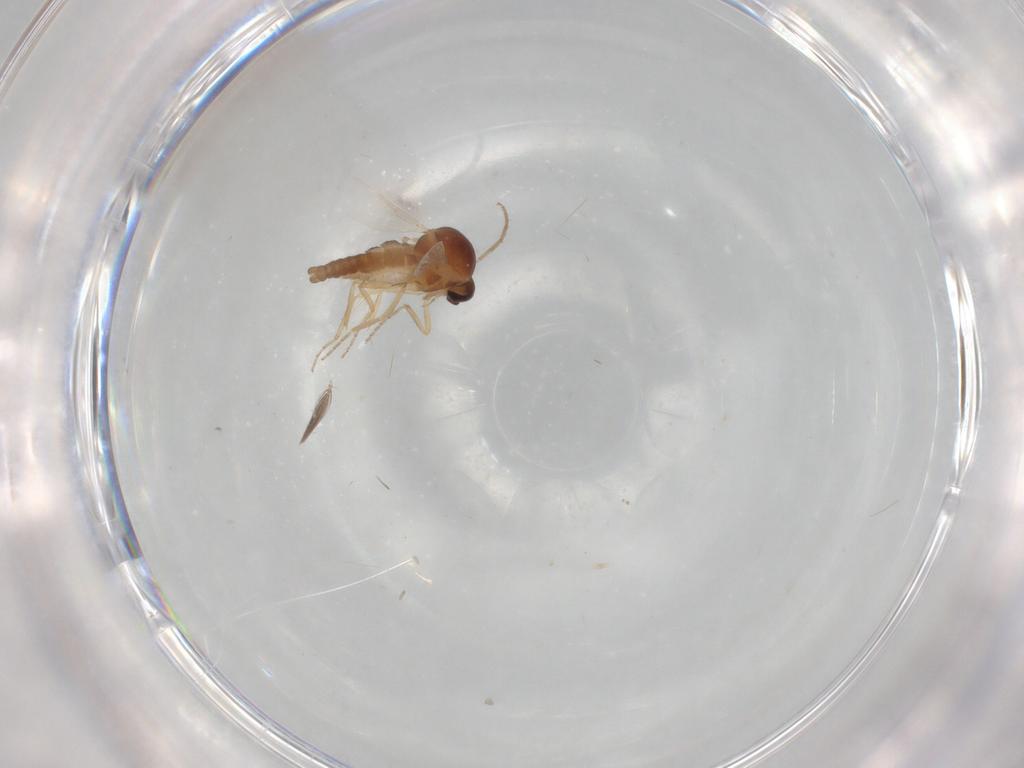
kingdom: Animalia
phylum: Arthropoda
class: Insecta
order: Diptera
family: Ceratopogonidae
